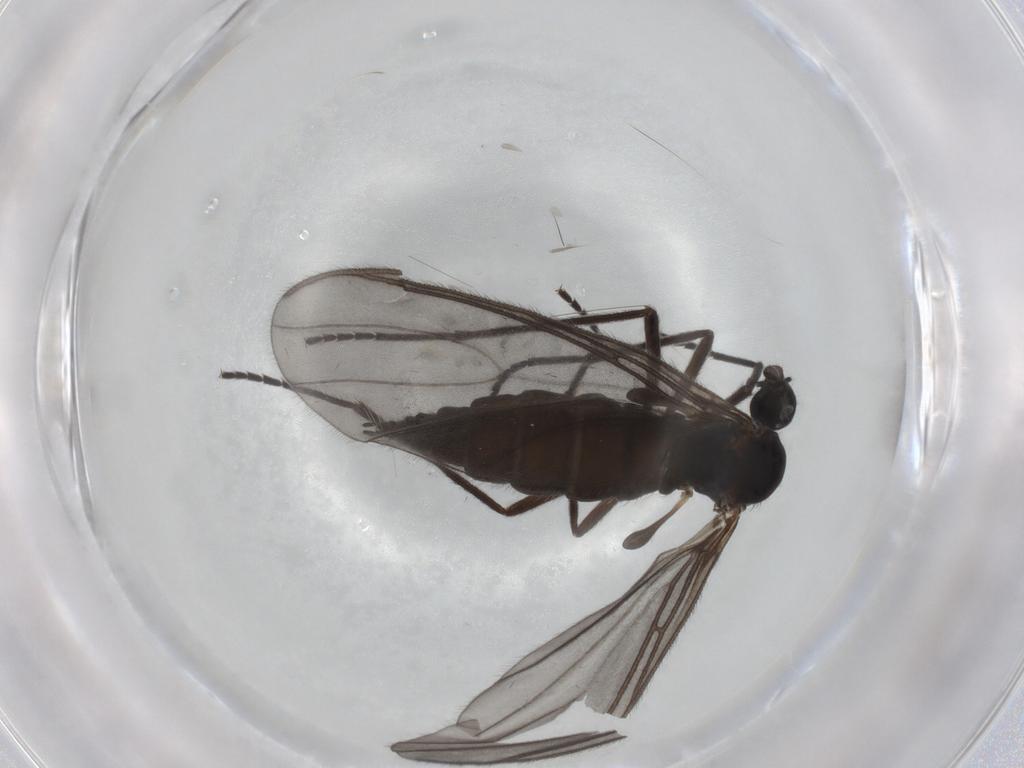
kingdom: Animalia
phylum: Arthropoda
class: Insecta
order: Diptera
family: Sciaridae
